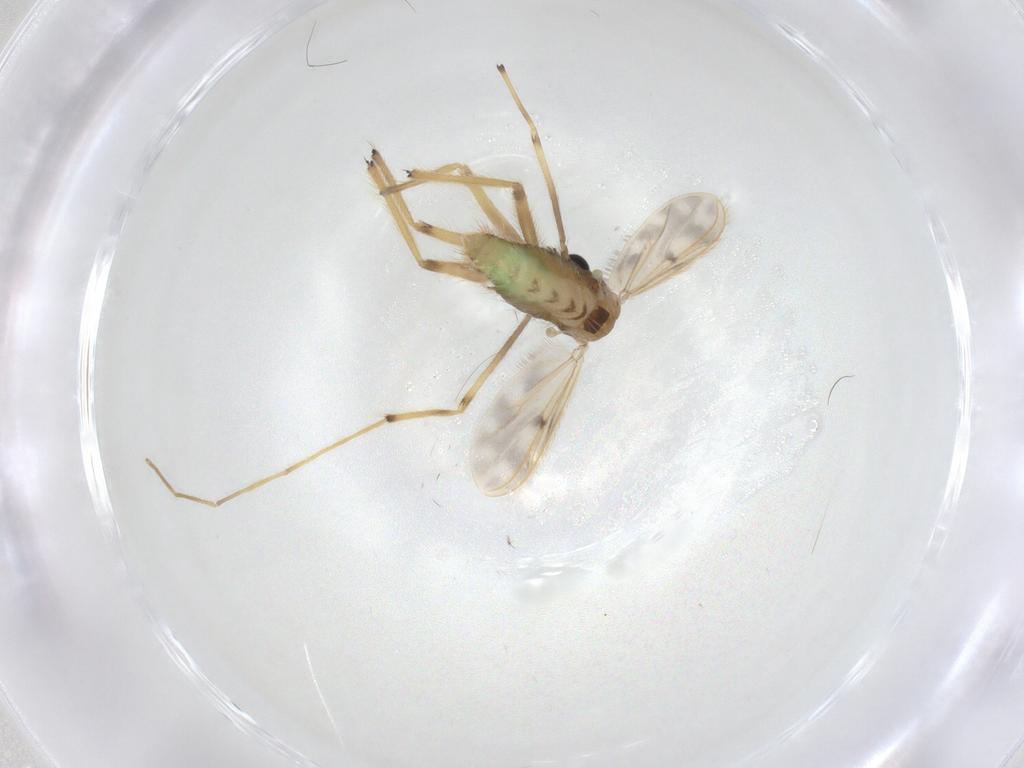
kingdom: Animalia
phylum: Arthropoda
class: Insecta
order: Diptera
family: Chironomidae
